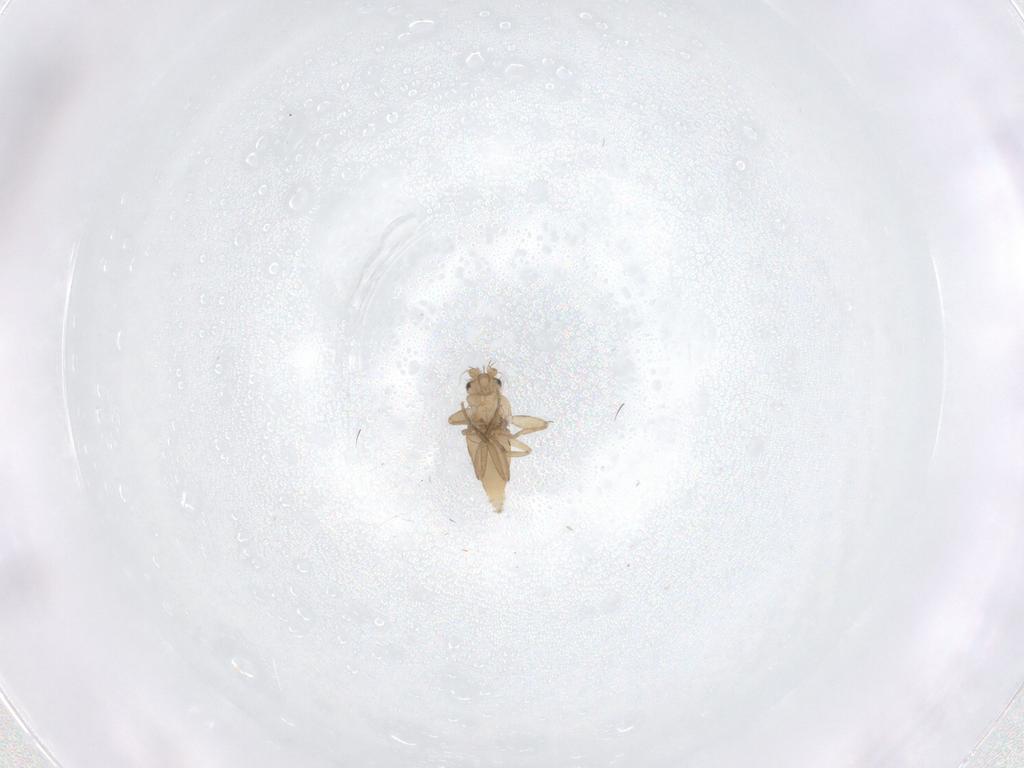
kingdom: Animalia
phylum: Arthropoda
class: Insecta
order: Diptera
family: Phoridae
